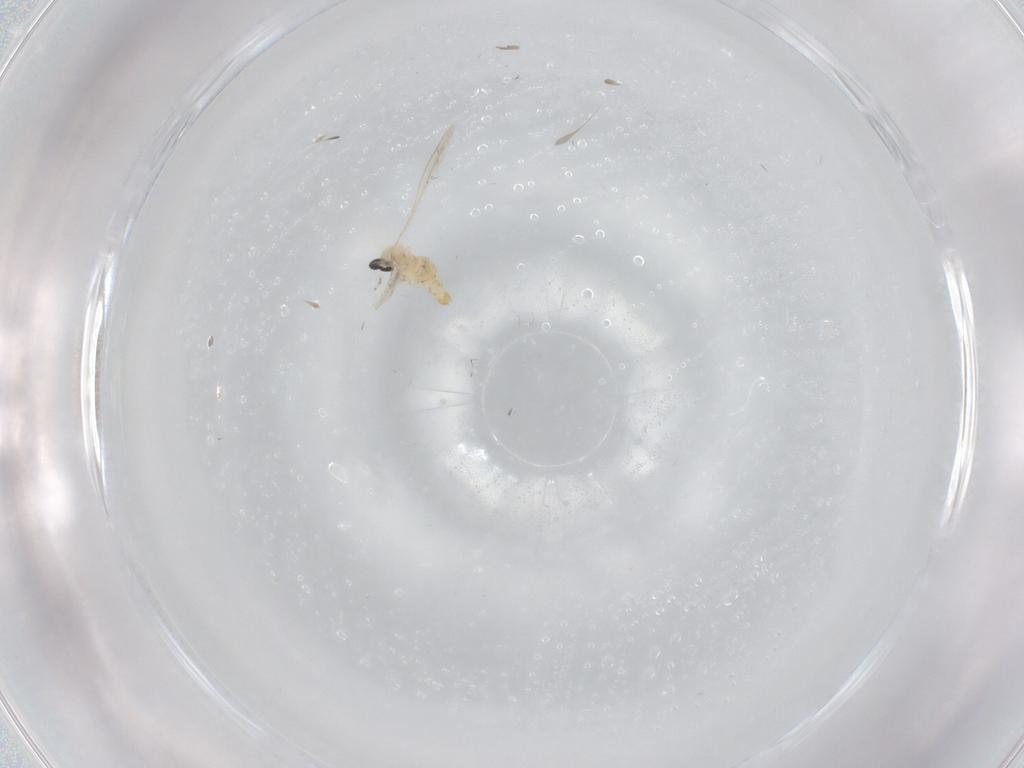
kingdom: Animalia
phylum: Arthropoda
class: Insecta
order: Diptera
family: Cecidomyiidae
